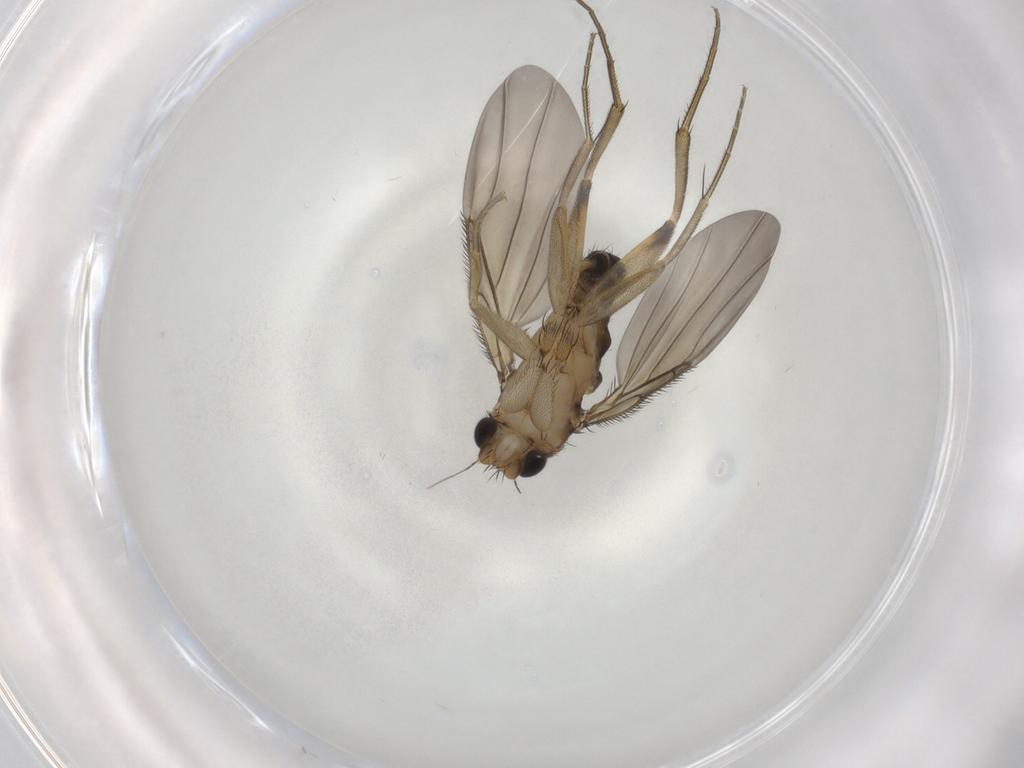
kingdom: Animalia
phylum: Arthropoda
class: Insecta
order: Diptera
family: Phoridae
